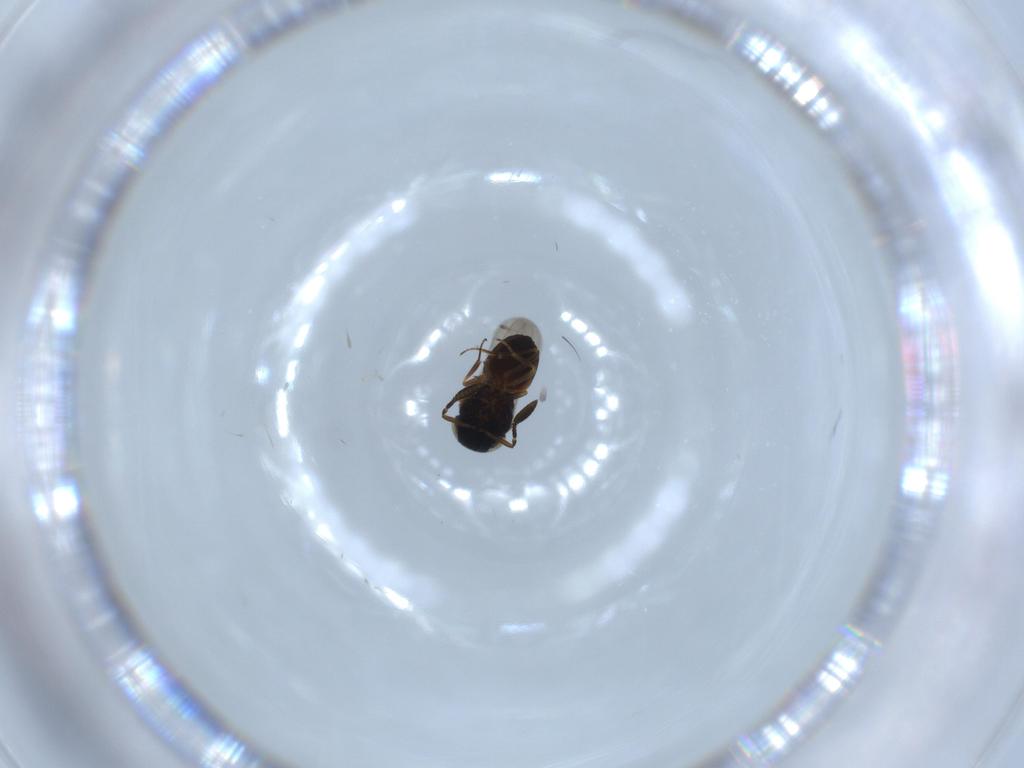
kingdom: Animalia
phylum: Arthropoda
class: Insecta
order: Hymenoptera
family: Scelionidae
